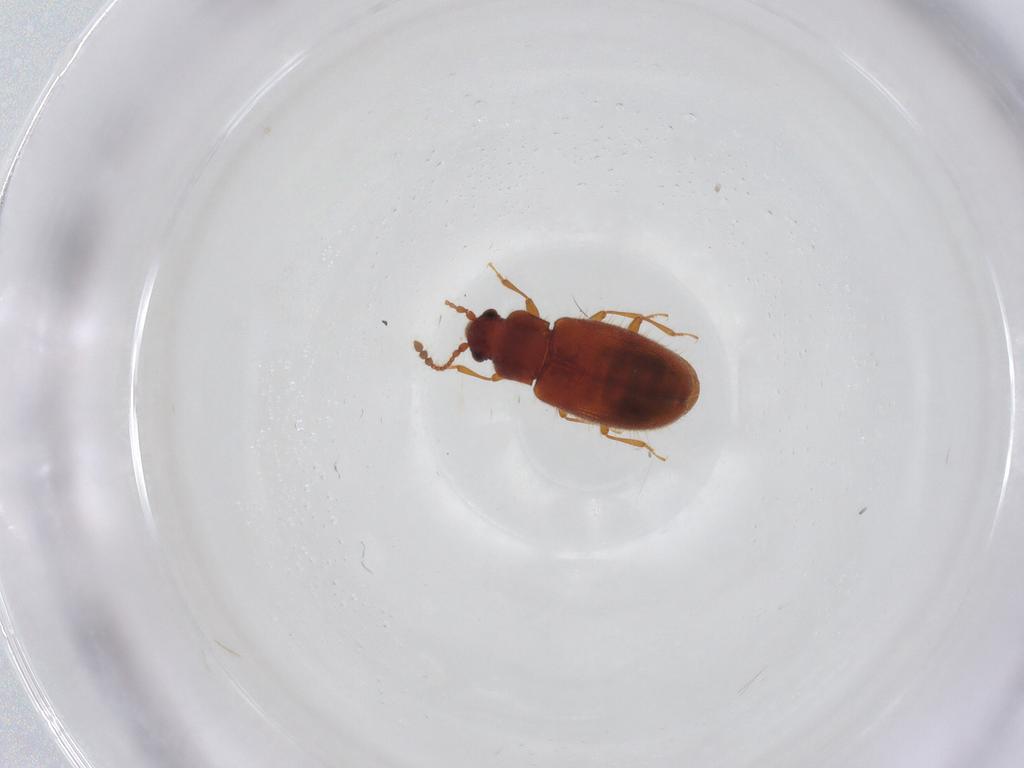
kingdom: Animalia
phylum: Arthropoda
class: Insecta
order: Coleoptera
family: Cryptophagidae
